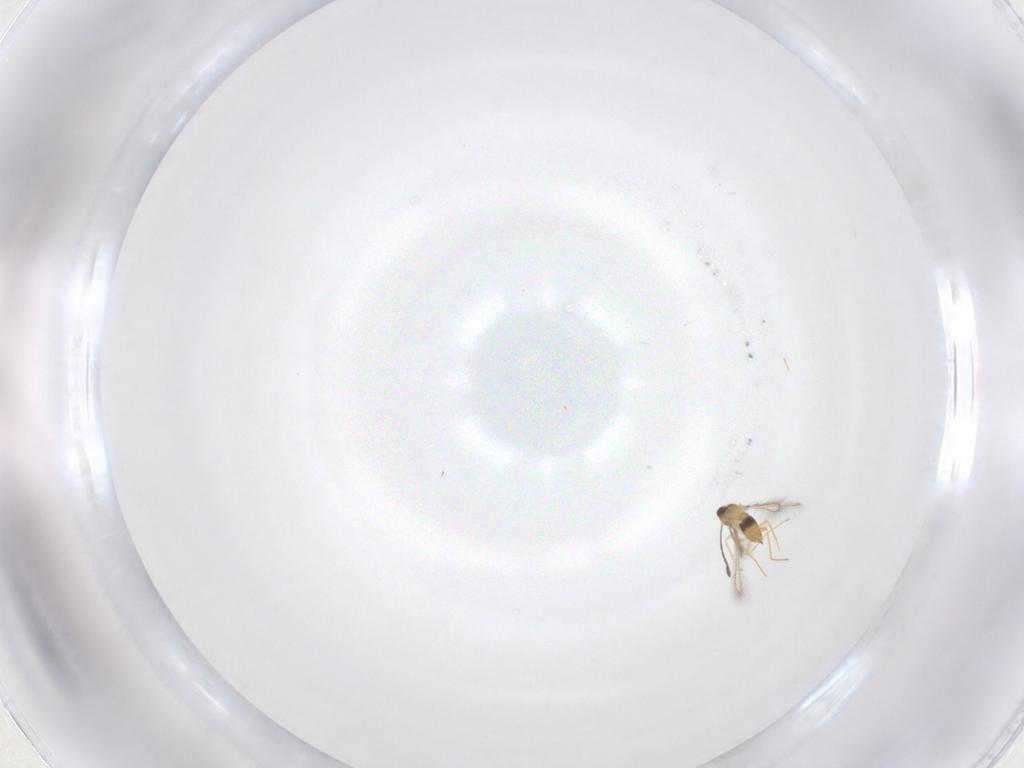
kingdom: Animalia
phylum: Arthropoda
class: Insecta
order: Hymenoptera
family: Mymaridae
